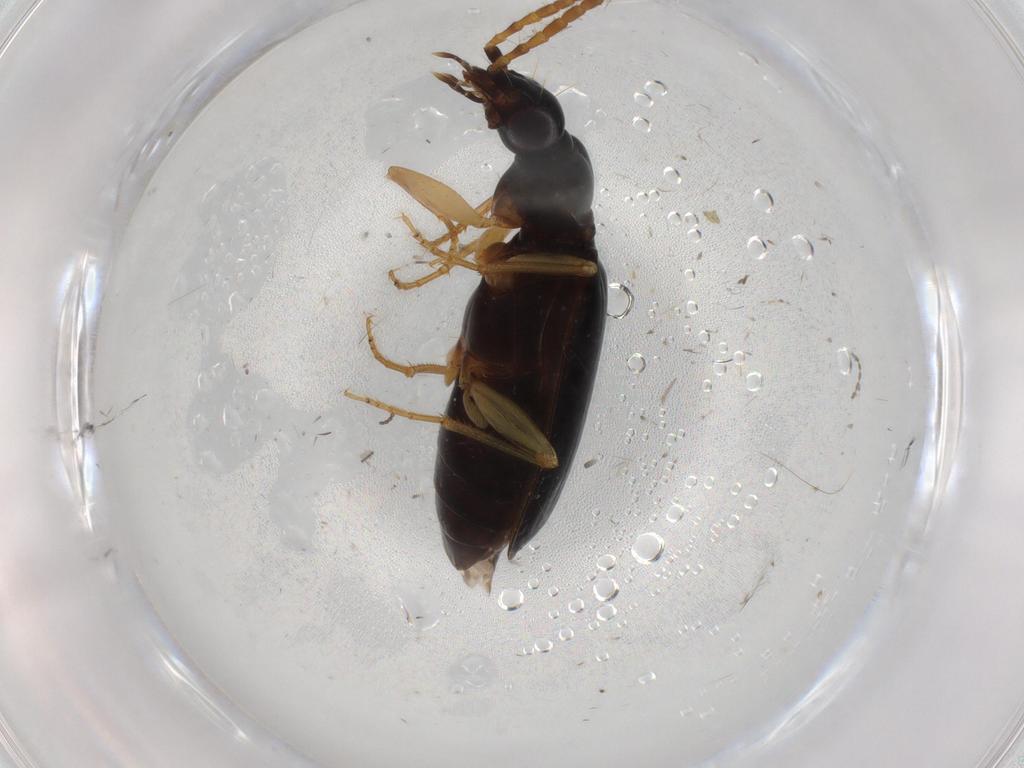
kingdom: Animalia
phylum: Arthropoda
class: Insecta
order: Coleoptera
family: Carabidae
